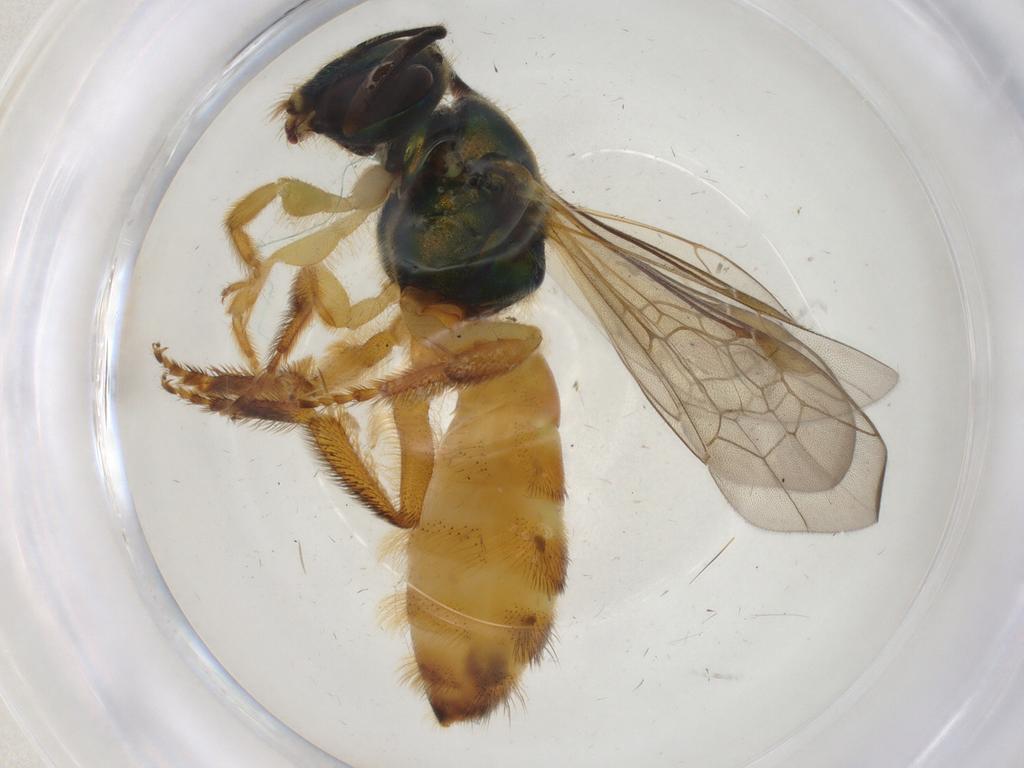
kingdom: Animalia
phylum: Arthropoda
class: Insecta
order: Hymenoptera
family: Halictidae
